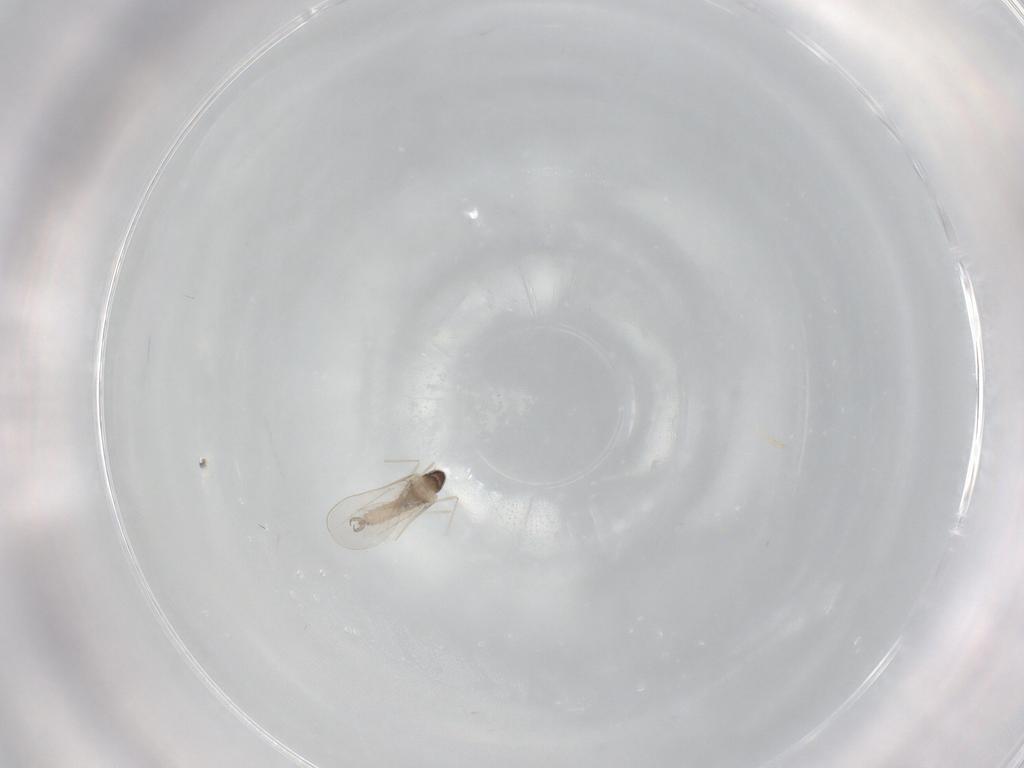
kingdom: Animalia
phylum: Arthropoda
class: Insecta
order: Diptera
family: Cecidomyiidae
